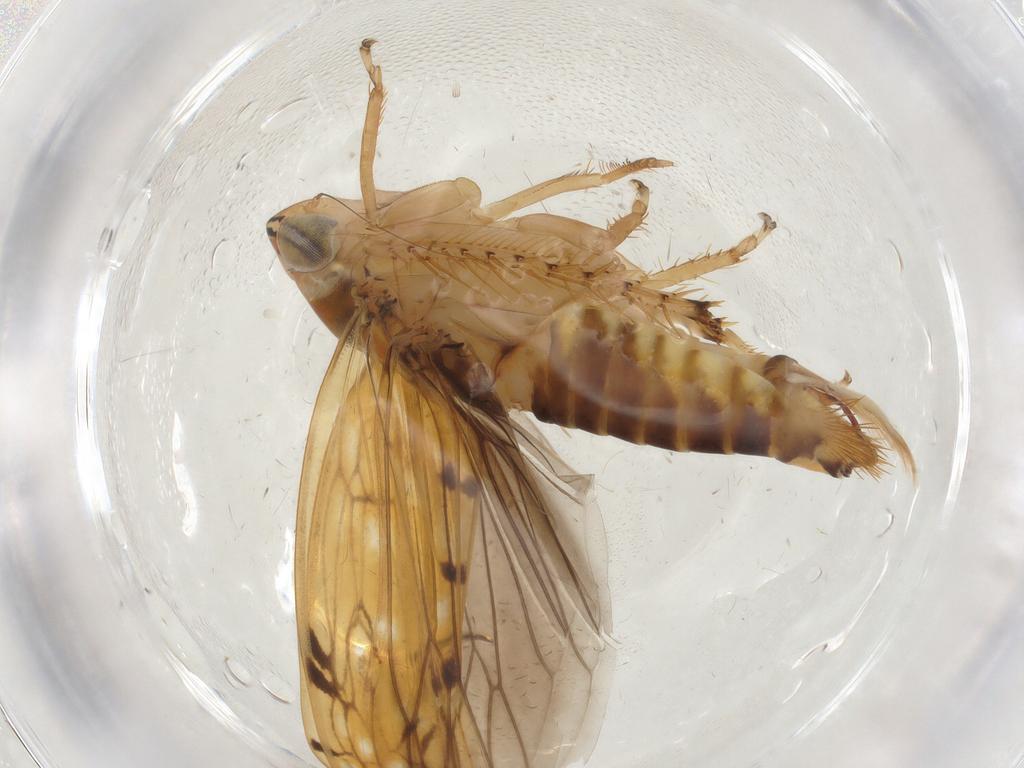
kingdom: Animalia
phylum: Arthropoda
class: Insecta
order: Hemiptera
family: Cicadellidae
